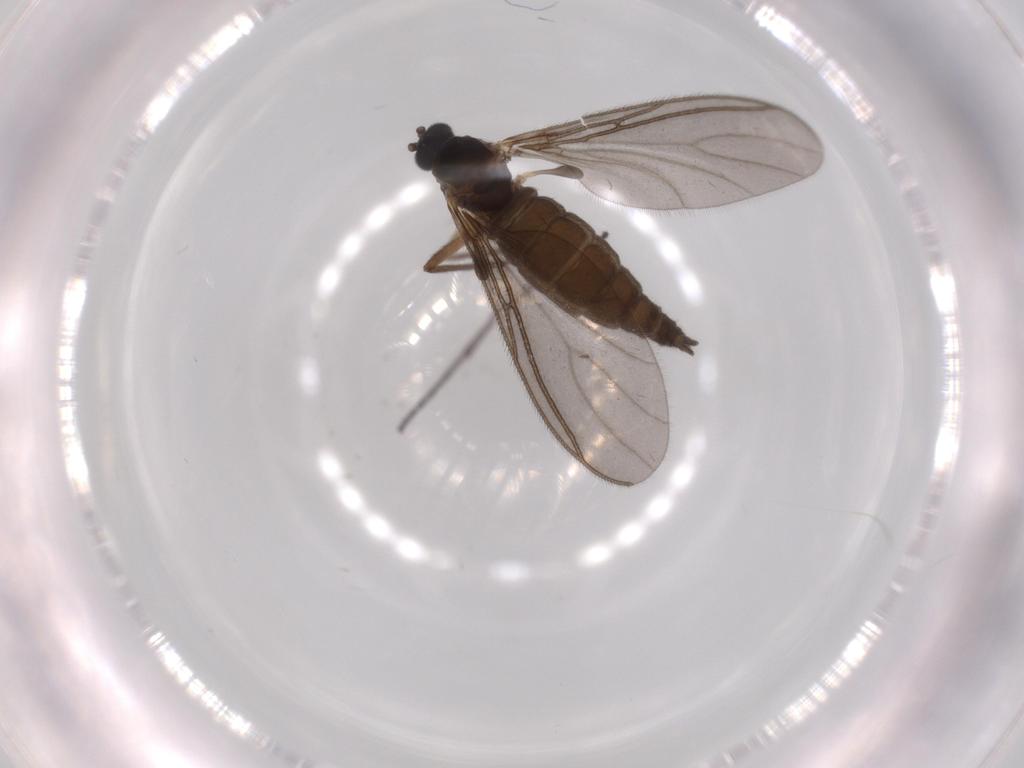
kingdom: Animalia
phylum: Arthropoda
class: Insecta
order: Diptera
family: Sciaridae
